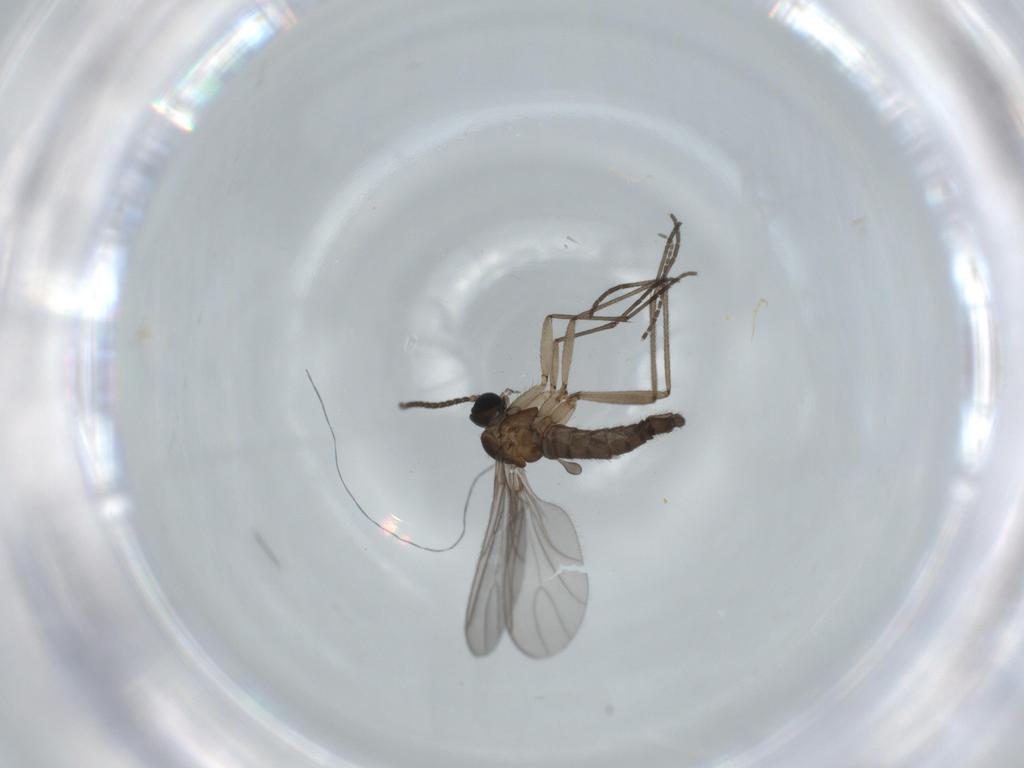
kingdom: Animalia
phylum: Arthropoda
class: Insecta
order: Diptera
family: Sciaridae
